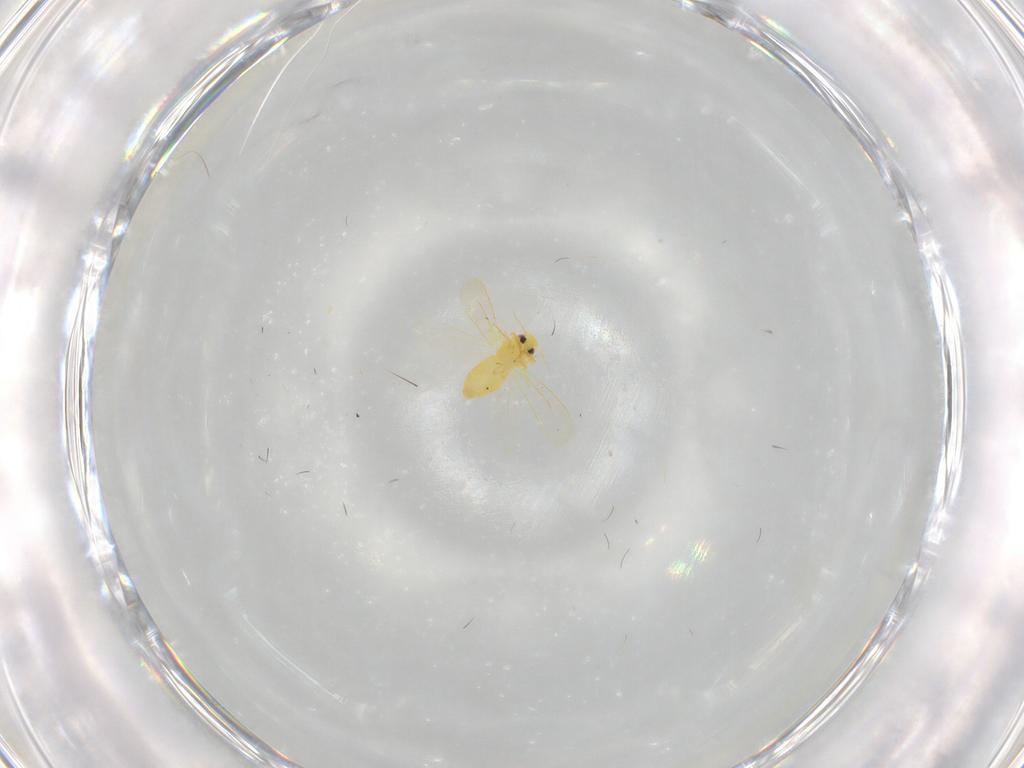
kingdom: Animalia
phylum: Arthropoda
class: Insecta
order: Hemiptera
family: Aleyrodidae
